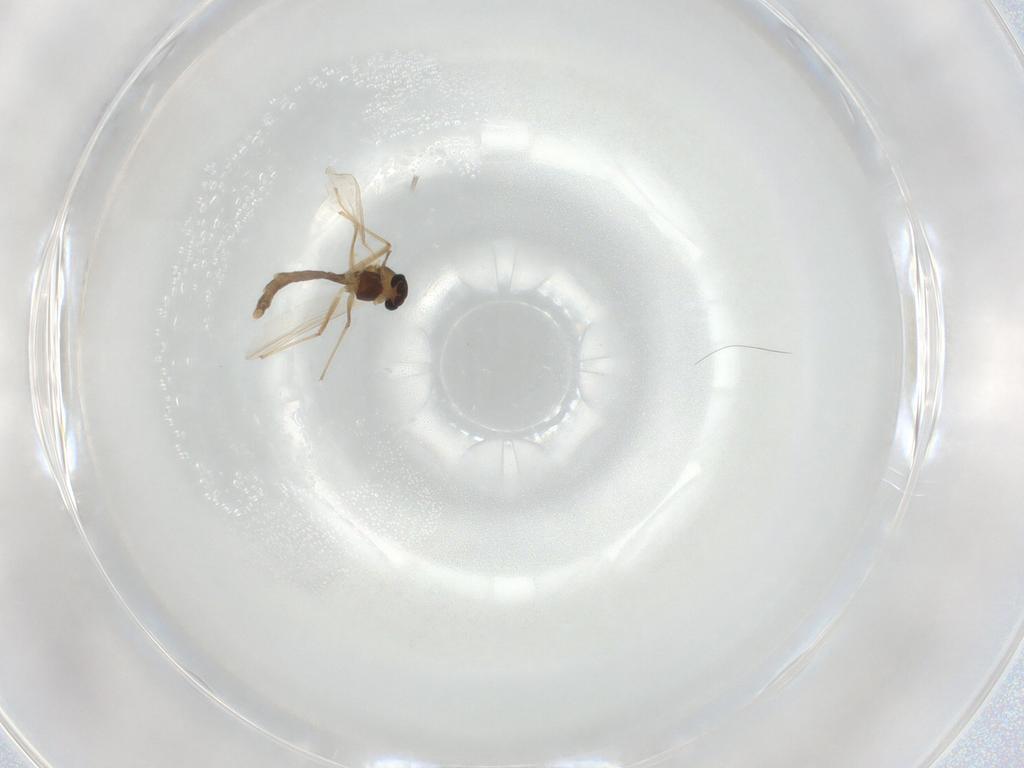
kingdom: Animalia
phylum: Arthropoda
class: Insecta
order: Diptera
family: Chironomidae
